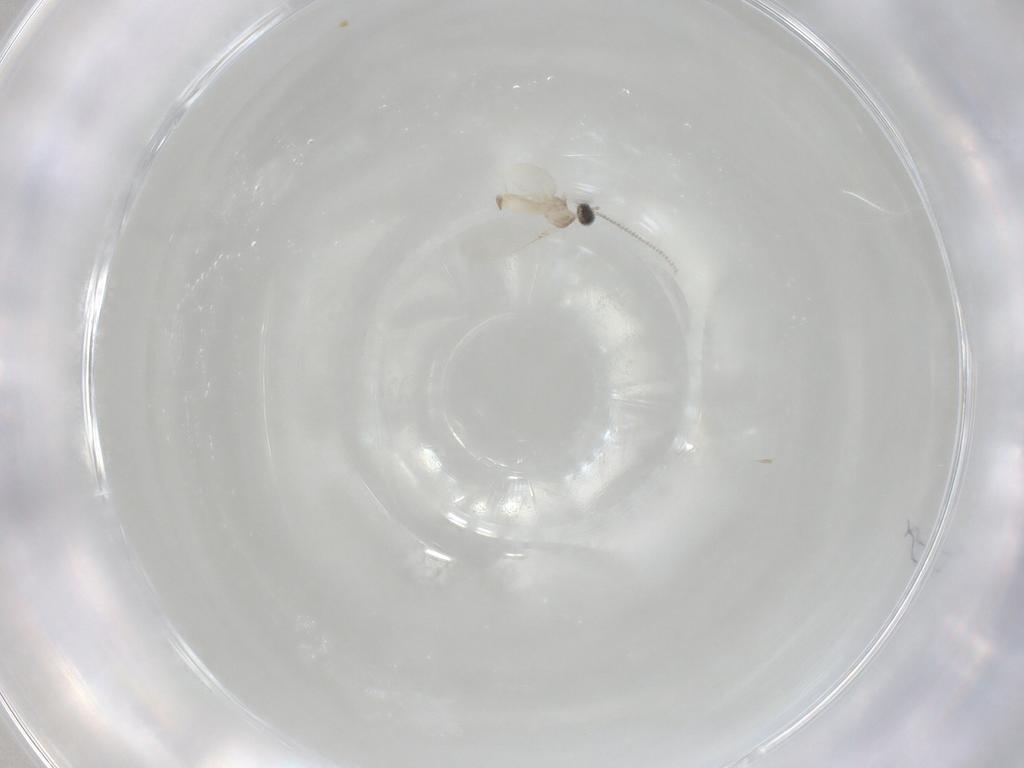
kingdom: Animalia
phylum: Arthropoda
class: Insecta
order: Diptera
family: Cecidomyiidae
